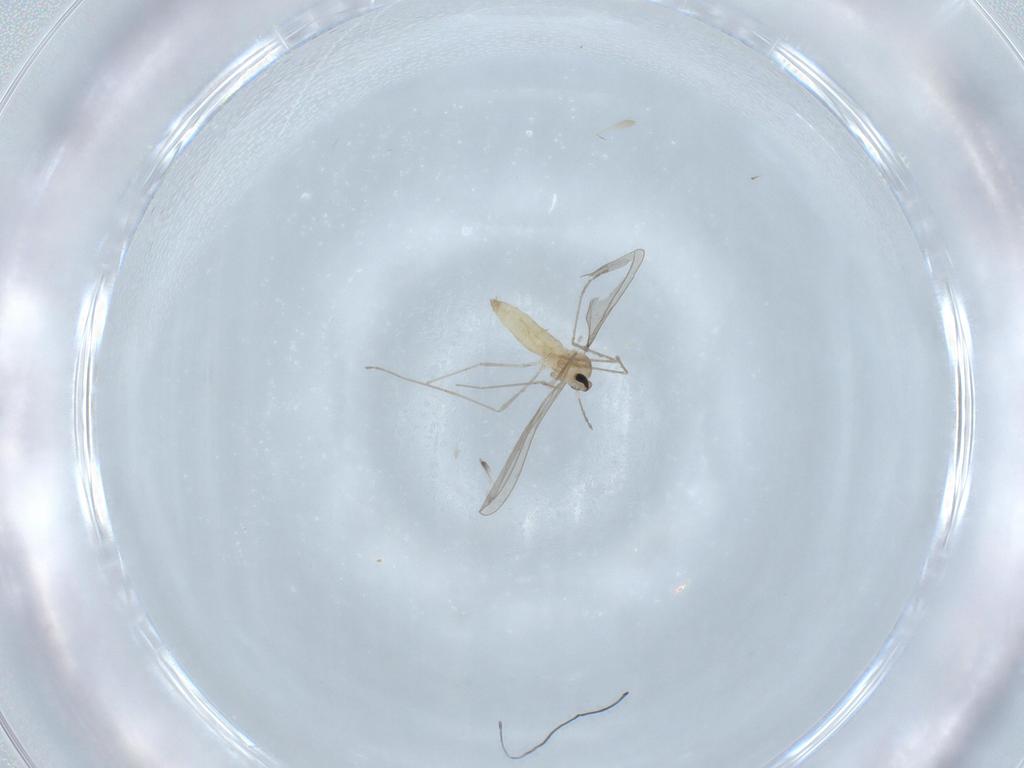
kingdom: Animalia
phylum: Arthropoda
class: Insecta
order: Diptera
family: Cecidomyiidae
